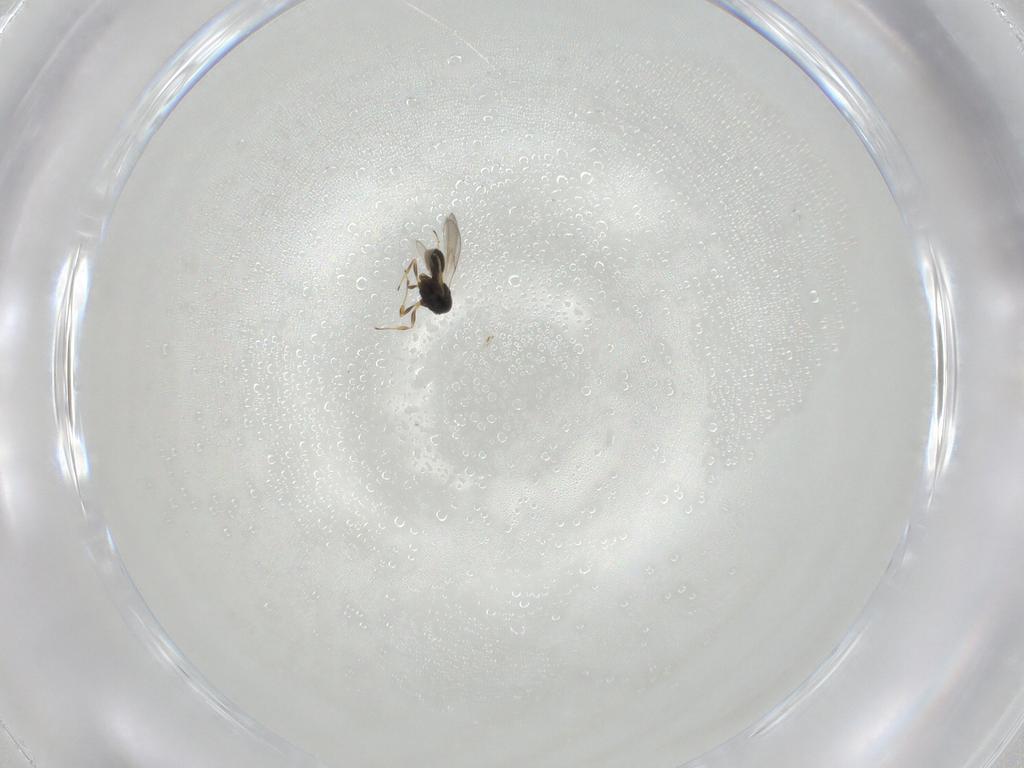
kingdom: Animalia
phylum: Arthropoda
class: Insecta
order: Hymenoptera
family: Scelionidae
